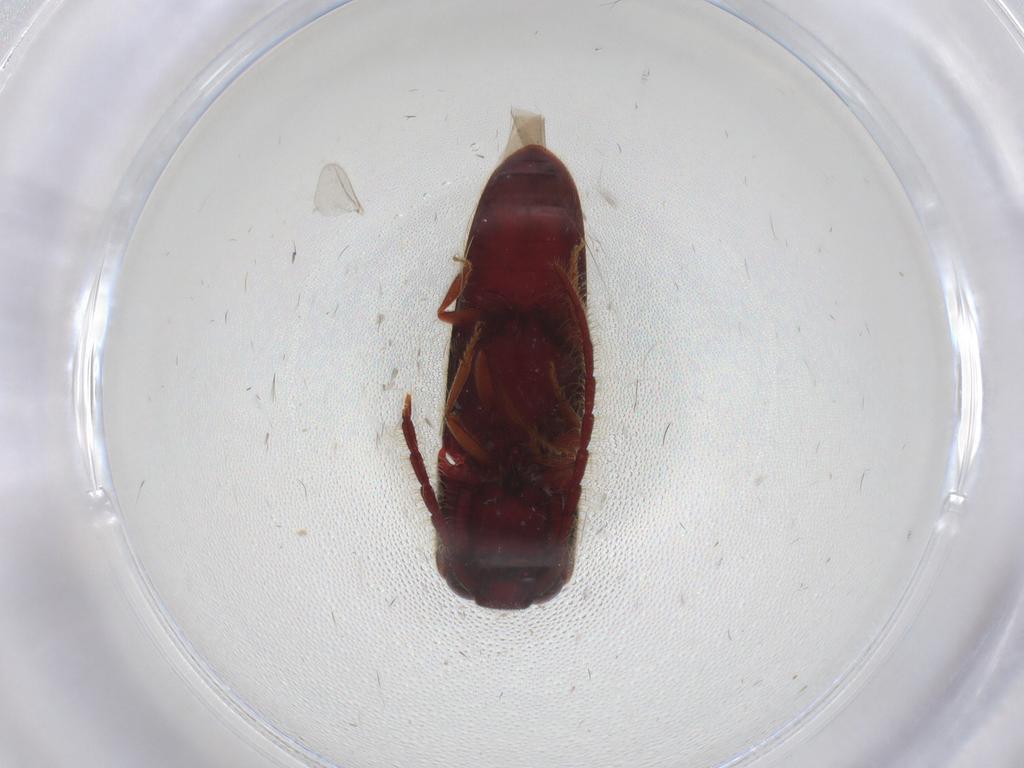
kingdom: Animalia
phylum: Arthropoda
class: Insecta
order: Coleoptera
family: Eucnemidae
